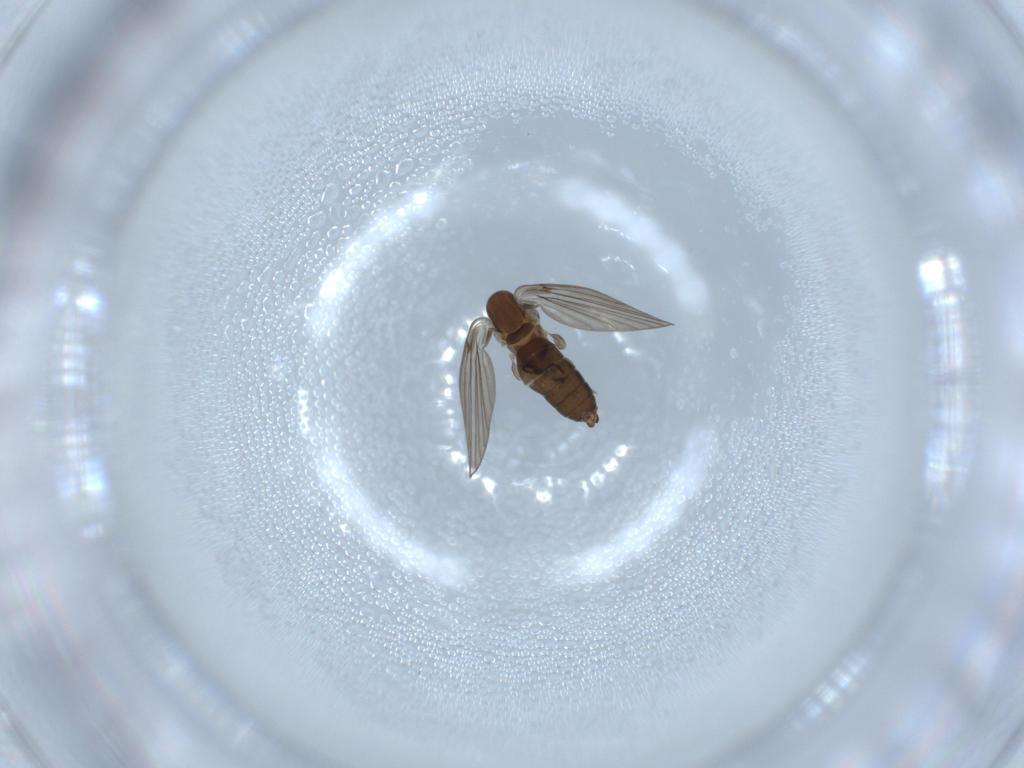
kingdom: Animalia
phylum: Arthropoda
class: Insecta
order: Diptera
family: Psychodidae
